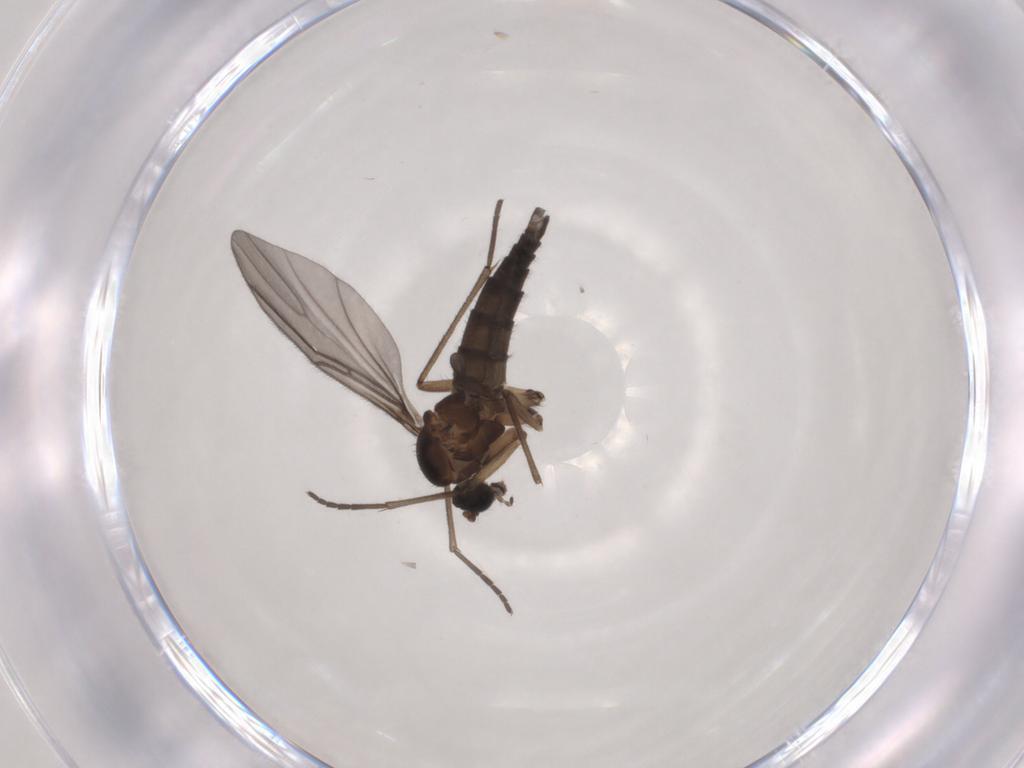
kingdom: Animalia
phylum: Arthropoda
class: Insecta
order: Diptera
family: Sciaridae
